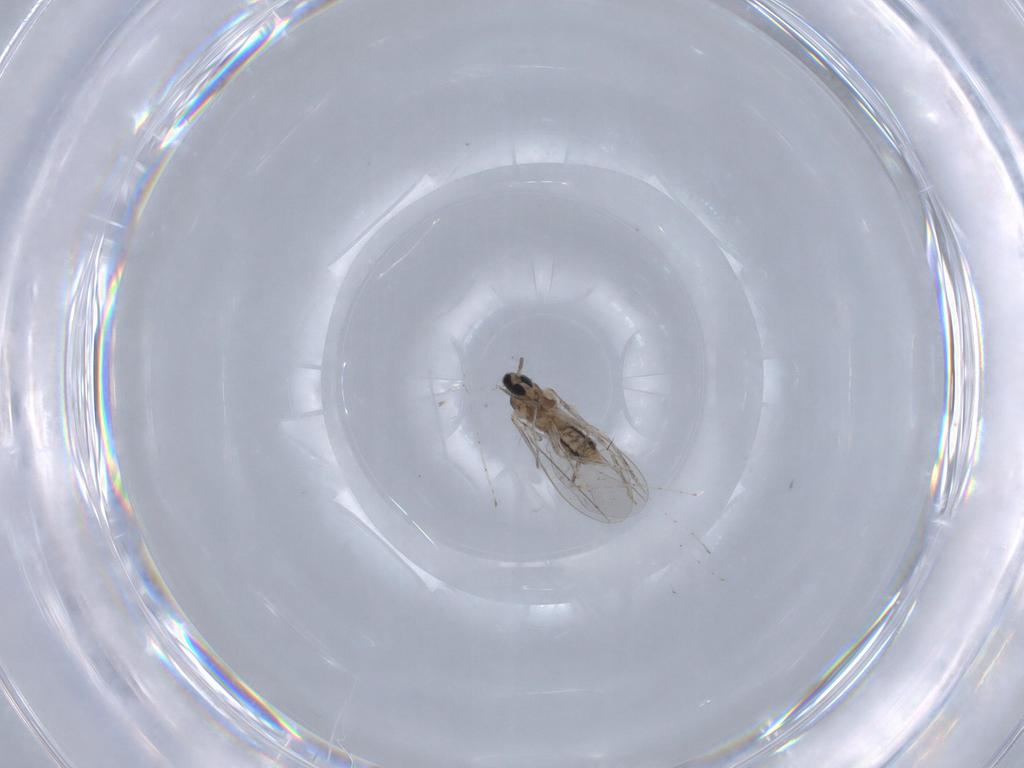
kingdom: Animalia
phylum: Arthropoda
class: Insecta
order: Diptera
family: Cecidomyiidae
